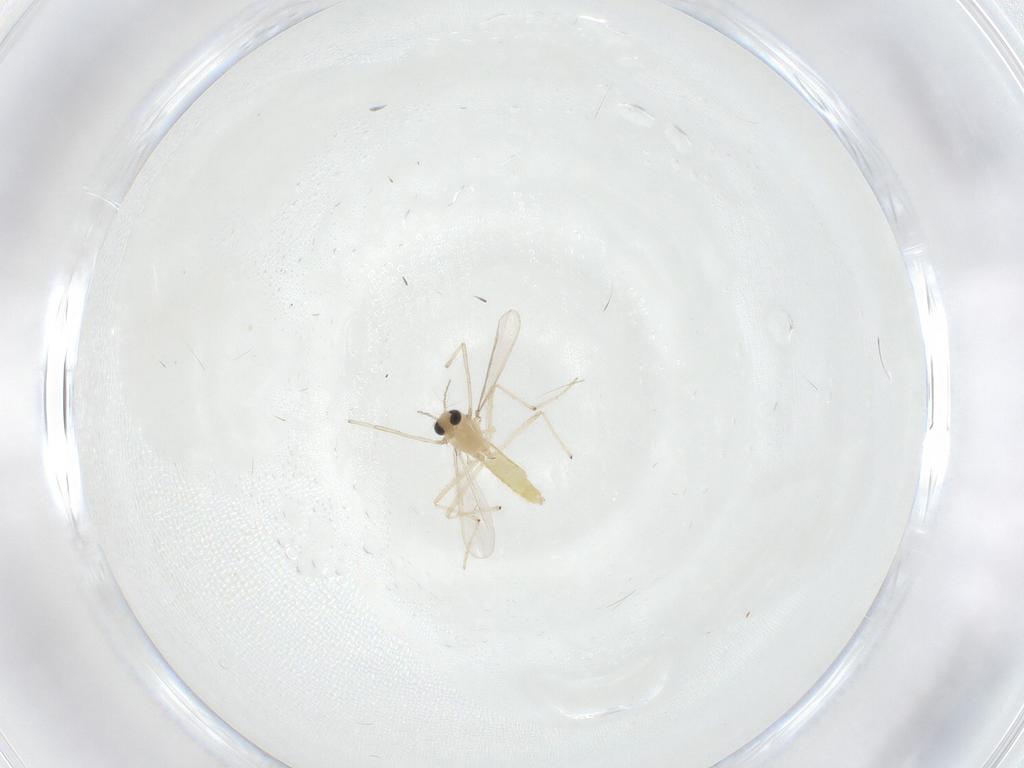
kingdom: Animalia
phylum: Arthropoda
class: Insecta
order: Diptera
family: Chironomidae
